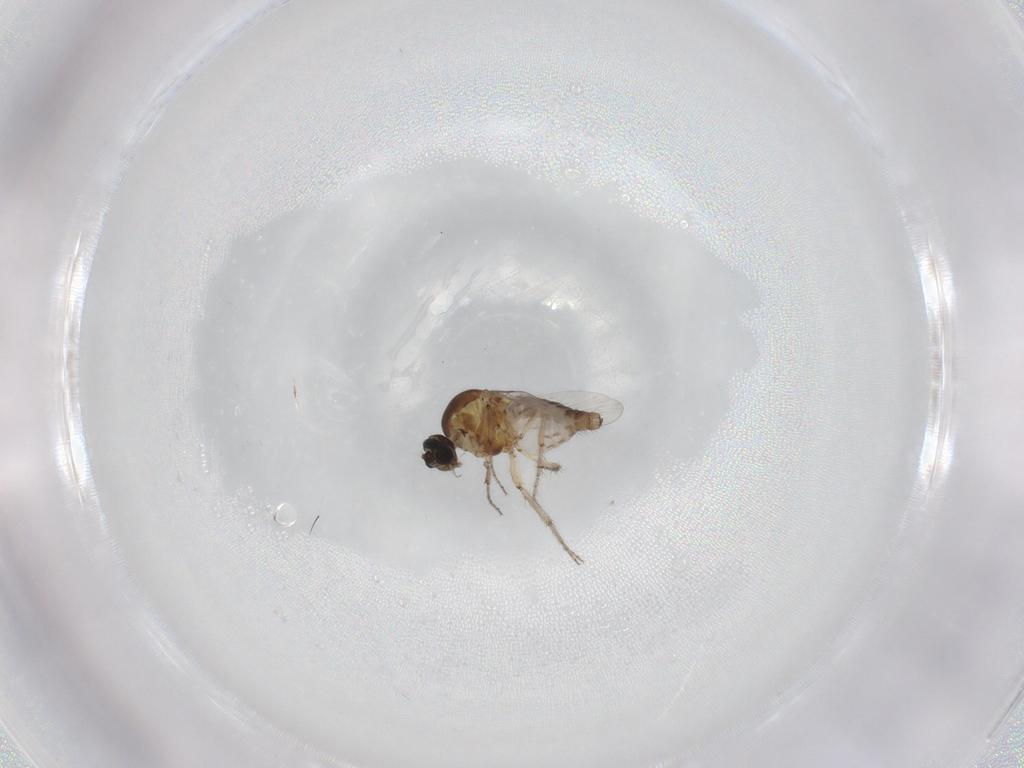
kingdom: Animalia
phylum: Arthropoda
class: Insecta
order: Diptera
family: Ceratopogonidae
